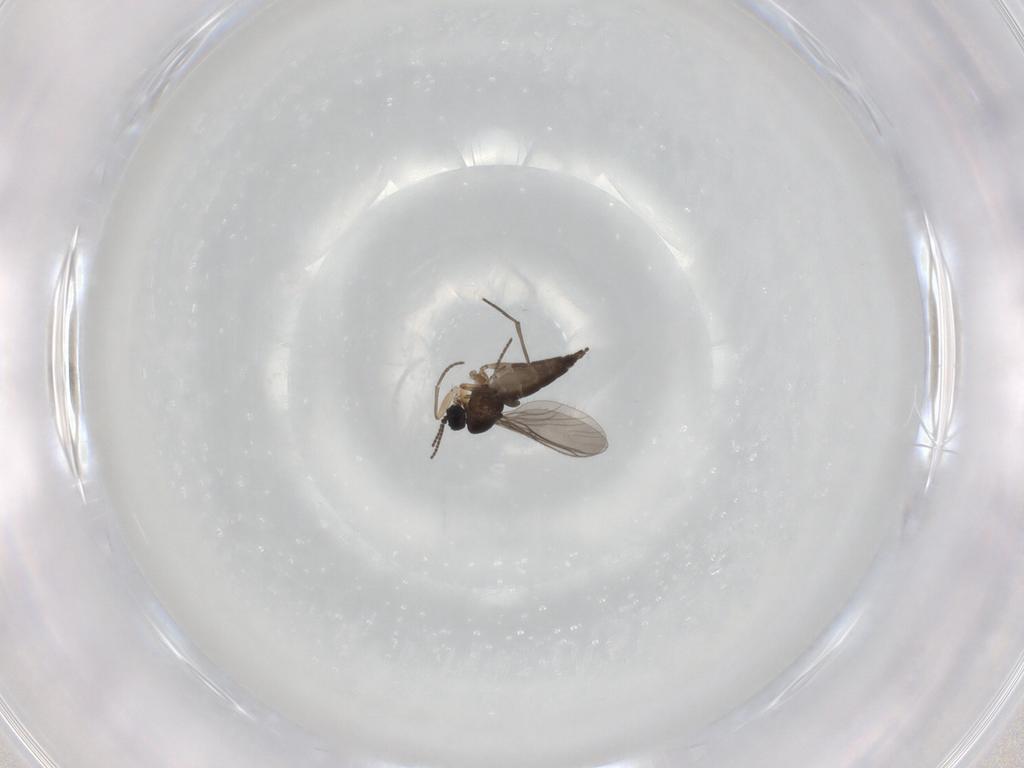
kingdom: Animalia
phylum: Arthropoda
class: Insecta
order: Diptera
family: Sciaridae
